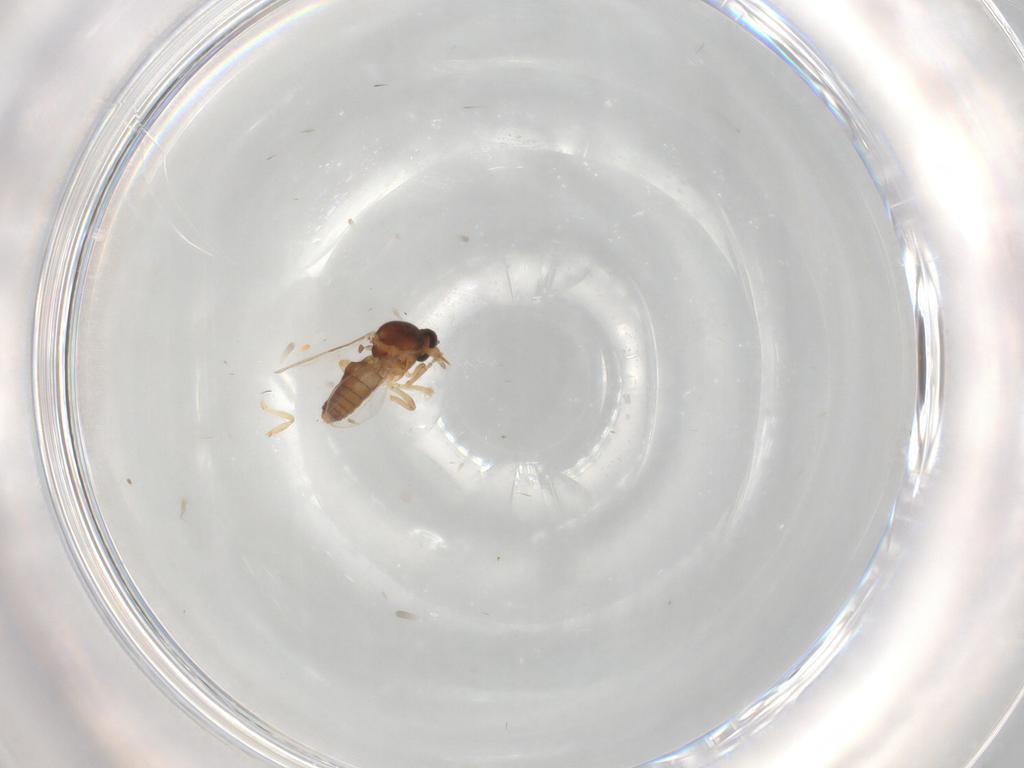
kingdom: Animalia
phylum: Arthropoda
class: Insecta
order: Diptera
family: Ceratopogonidae
